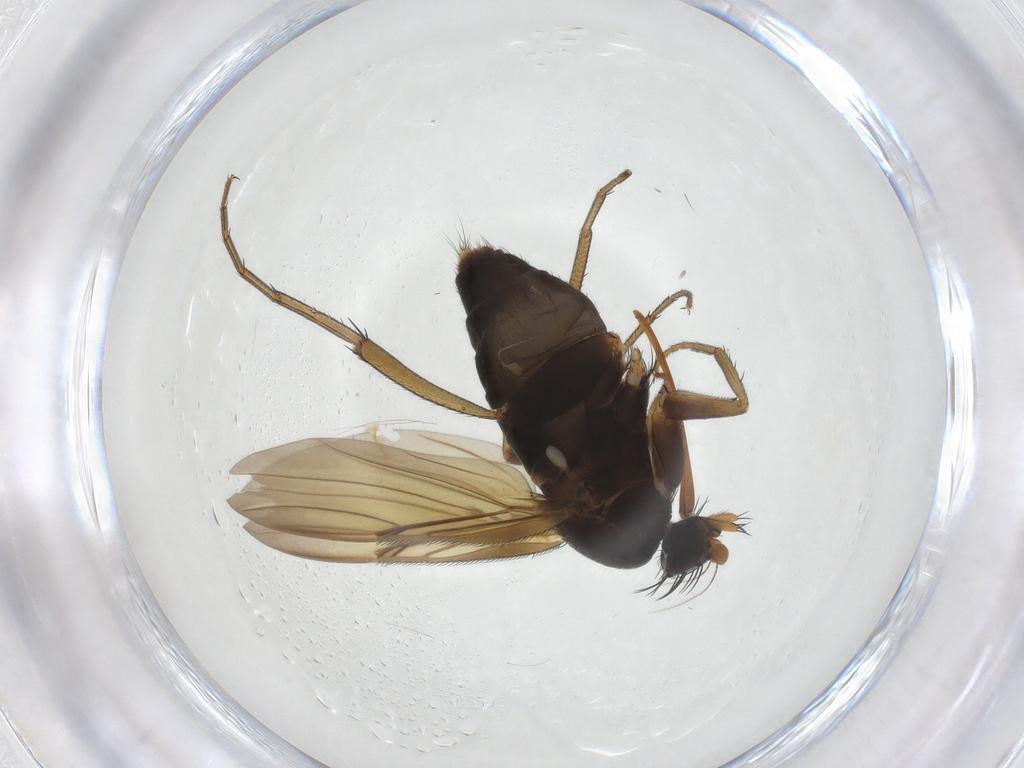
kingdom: Animalia
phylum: Arthropoda
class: Insecta
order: Diptera
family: Phoridae
